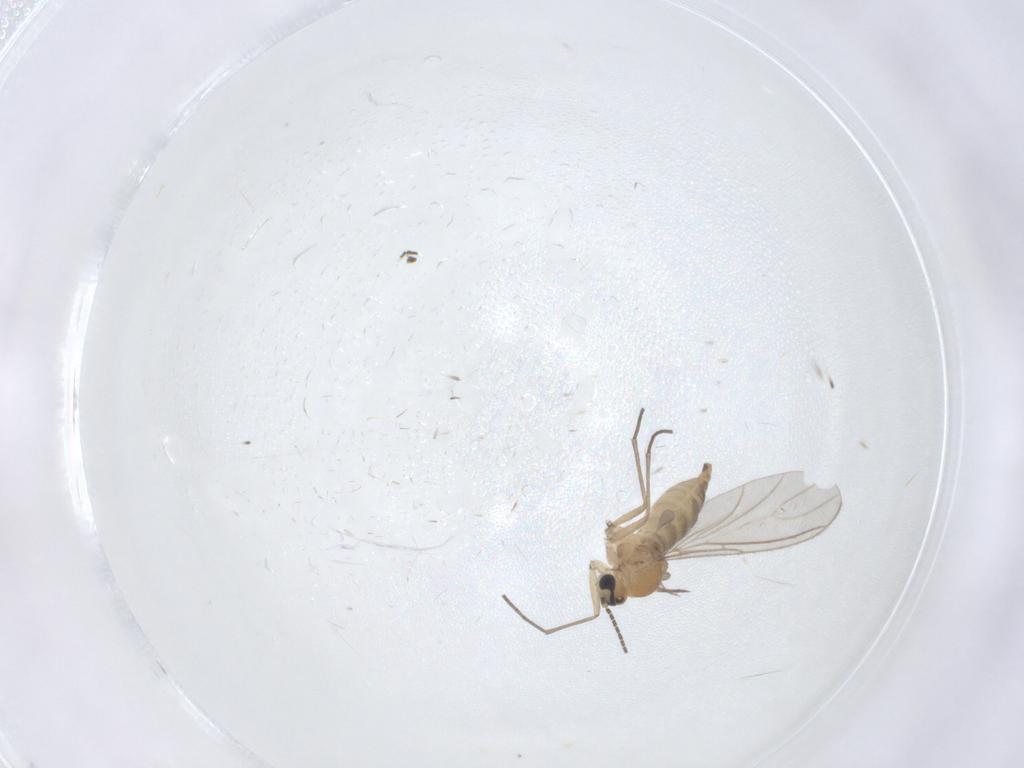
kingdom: Animalia
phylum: Arthropoda
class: Insecta
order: Diptera
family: Sciaridae
